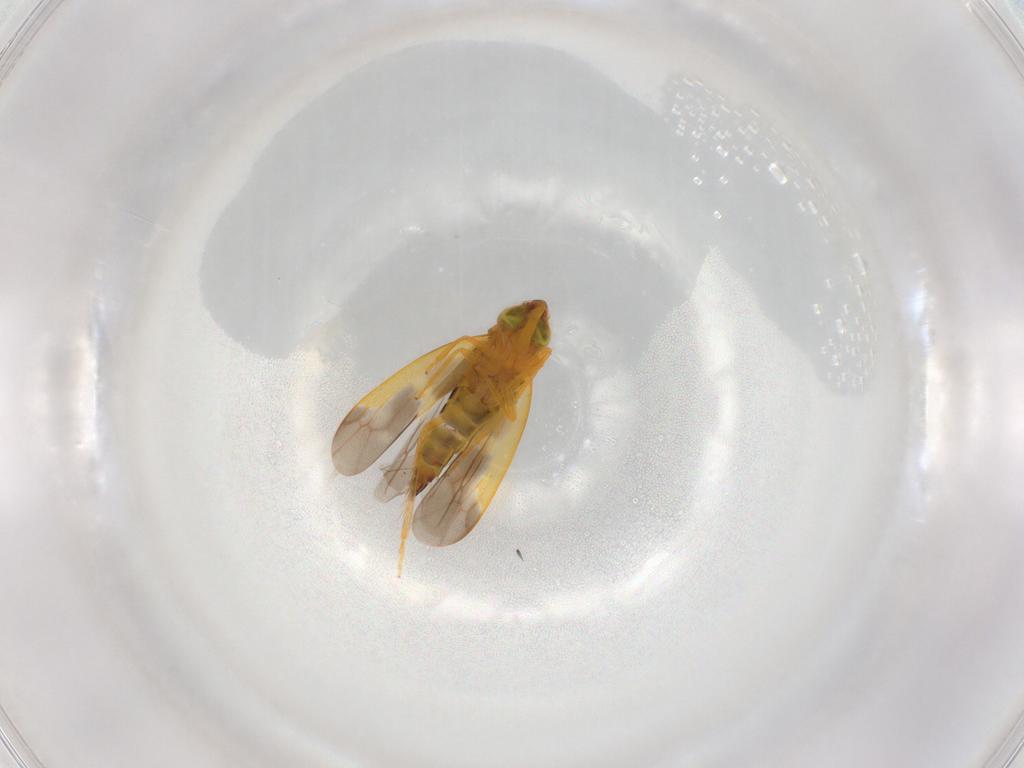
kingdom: Animalia
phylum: Arthropoda
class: Insecta
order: Hemiptera
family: Cicadellidae
